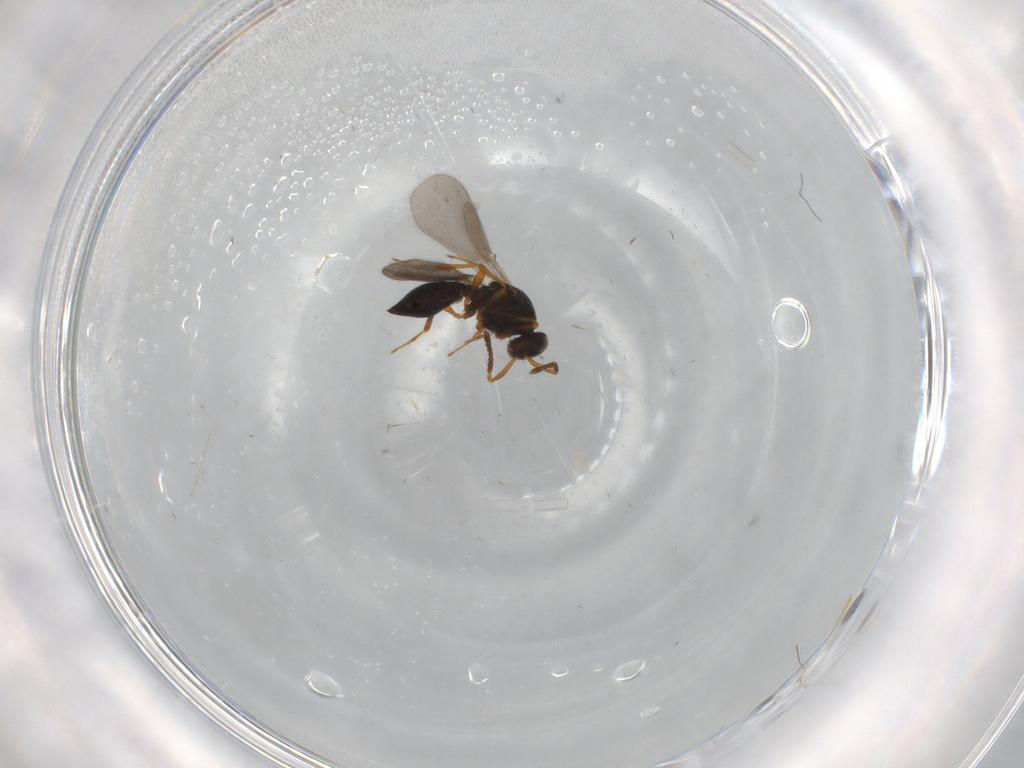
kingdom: Animalia
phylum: Arthropoda
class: Insecta
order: Hymenoptera
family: Platygastridae
